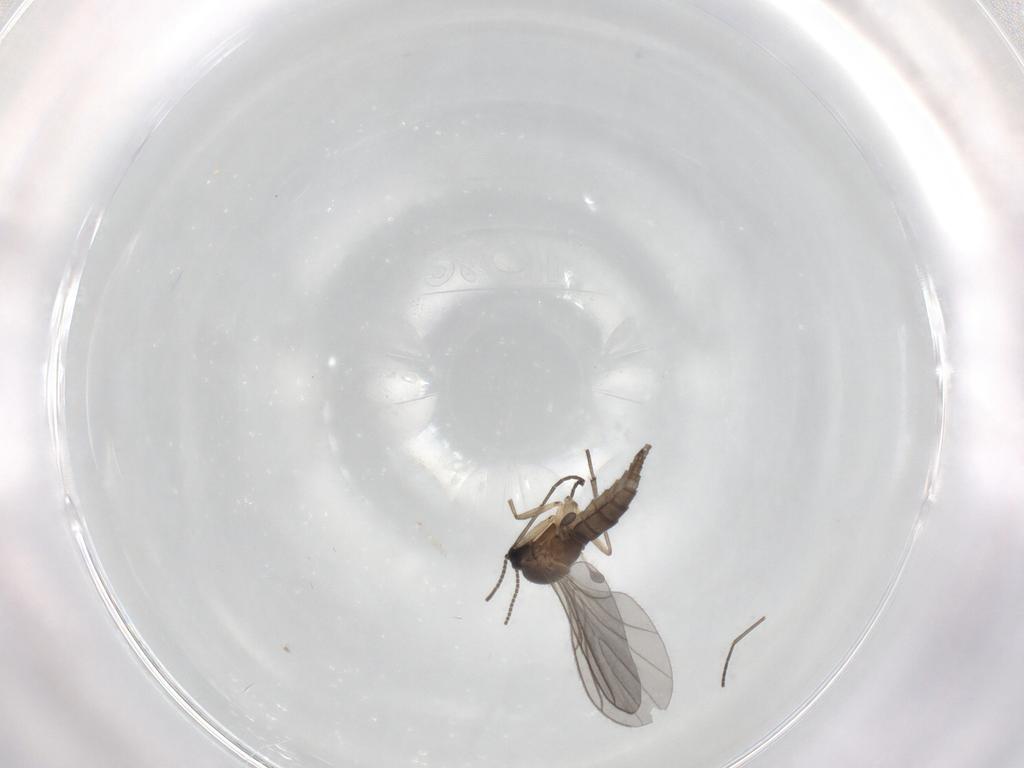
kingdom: Animalia
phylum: Arthropoda
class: Insecta
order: Diptera
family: Sciaridae
